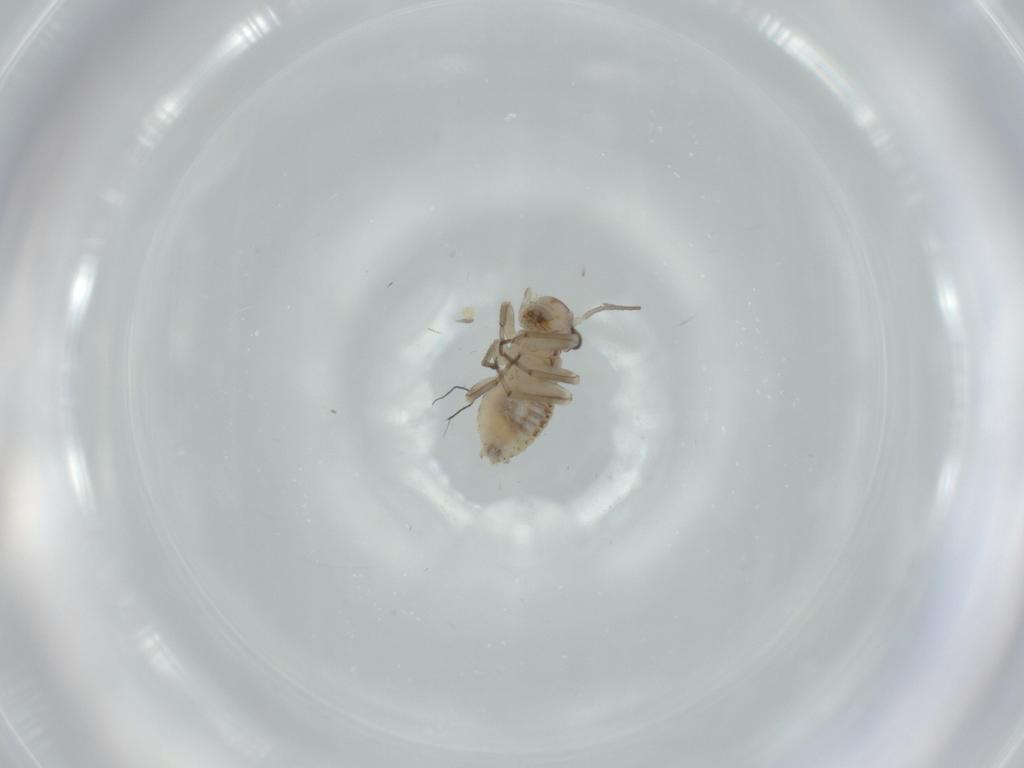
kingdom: Animalia
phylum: Arthropoda
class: Insecta
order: Psocodea
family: Psocidae
